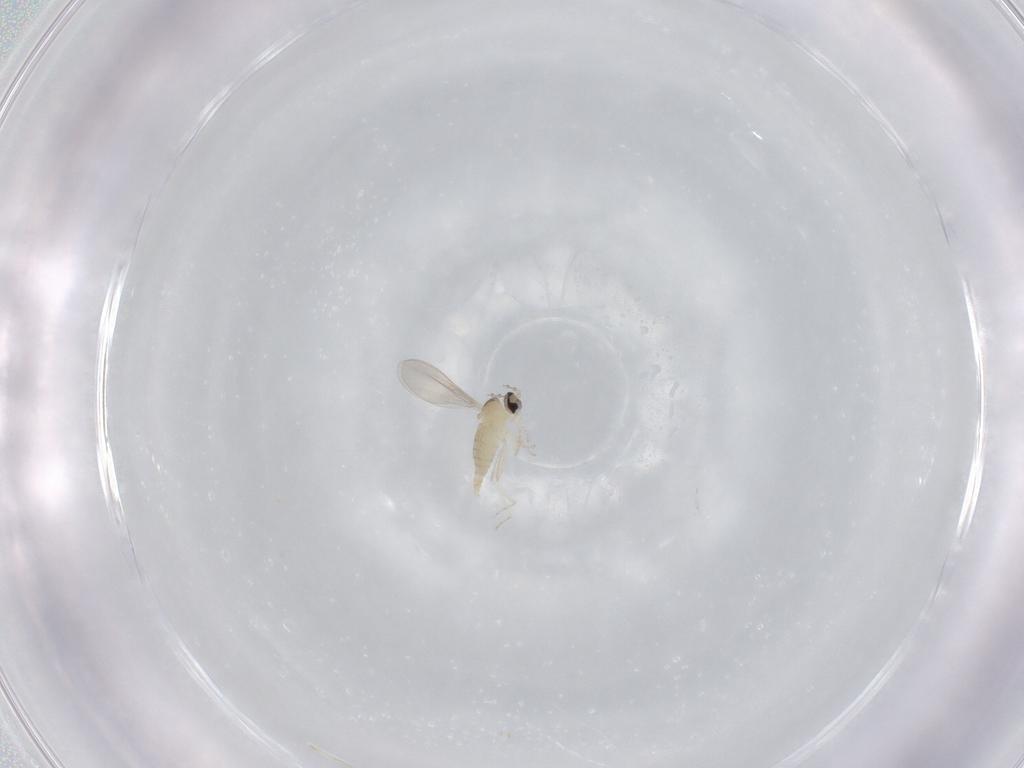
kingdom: Animalia
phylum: Arthropoda
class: Insecta
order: Diptera
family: Cecidomyiidae
